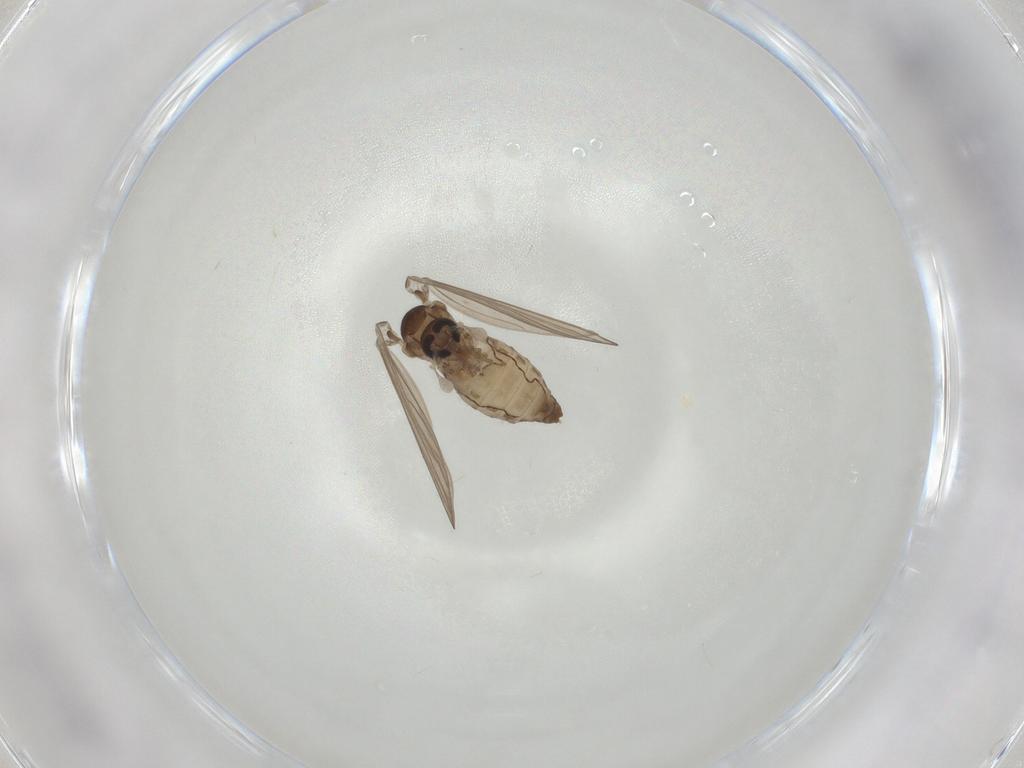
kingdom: Animalia
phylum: Arthropoda
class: Insecta
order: Diptera
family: Psychodidae
